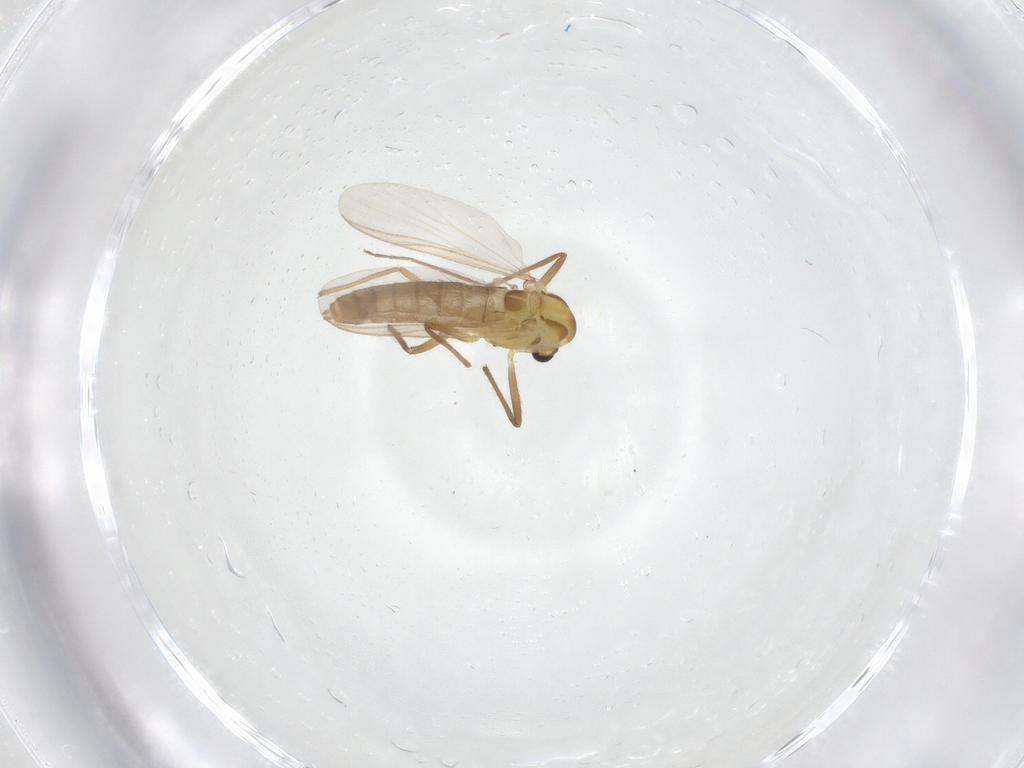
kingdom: Animalia
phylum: Arthropoda
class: Insecta
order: Diptera
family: Chironomidae
